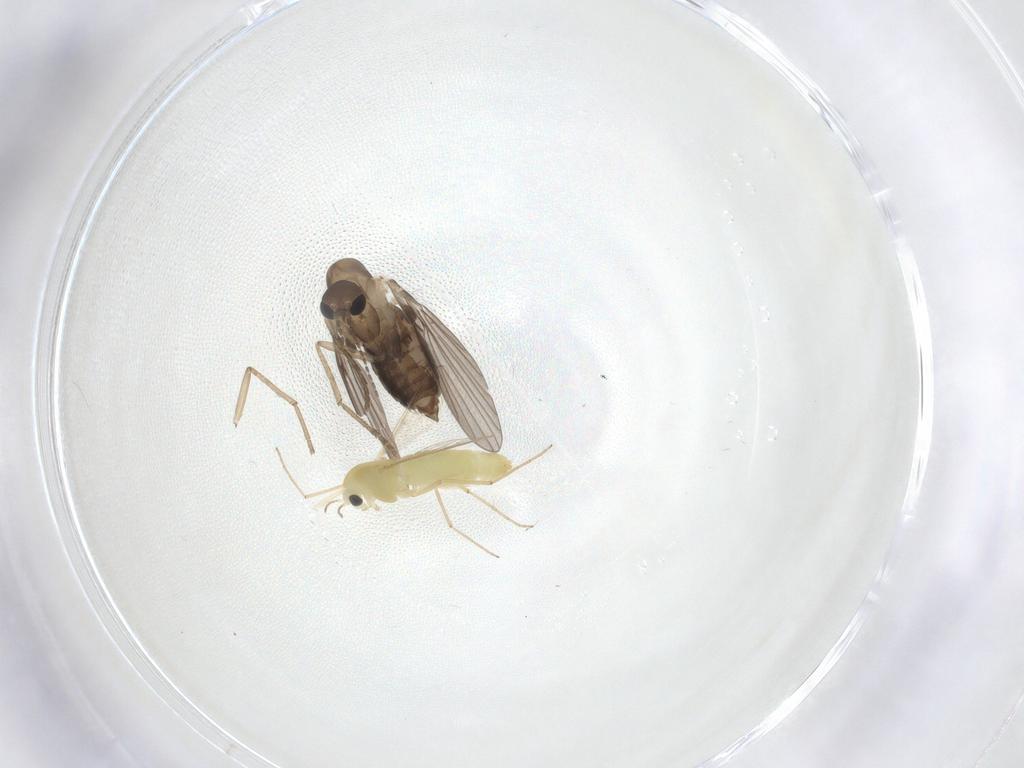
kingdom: Animalia
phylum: Arthropoda
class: Insecta
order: Diptera
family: Chironomidae
